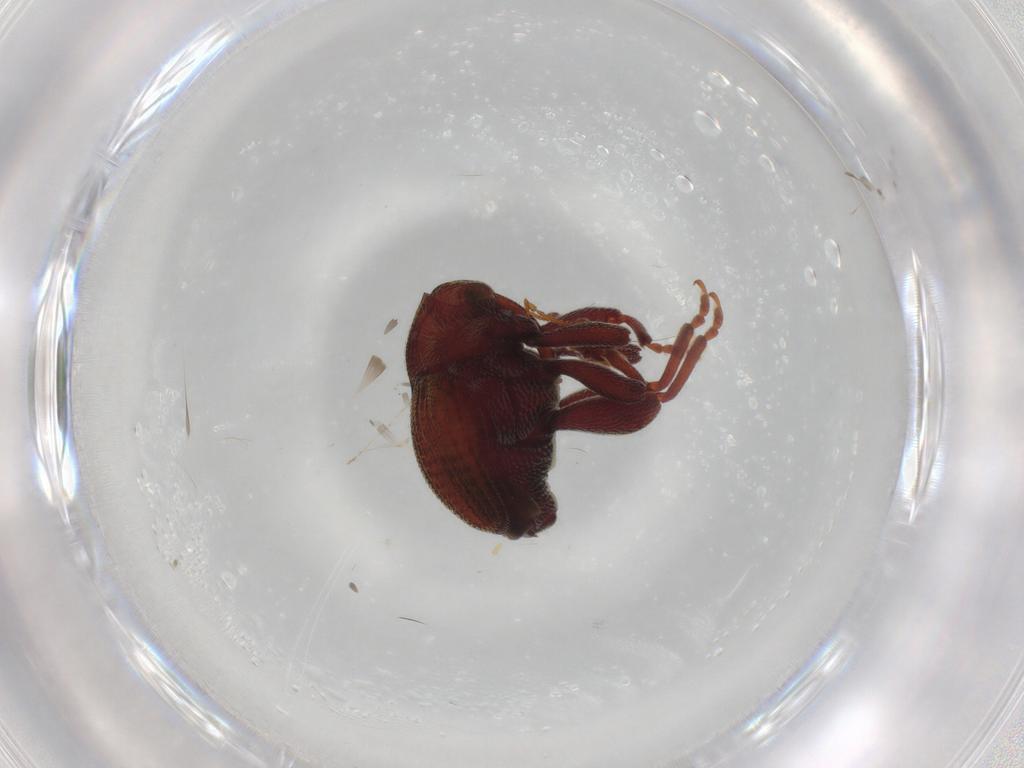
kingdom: Animalia
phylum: Arthropoda
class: Insecta
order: Coleoptera
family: Curculionidae
